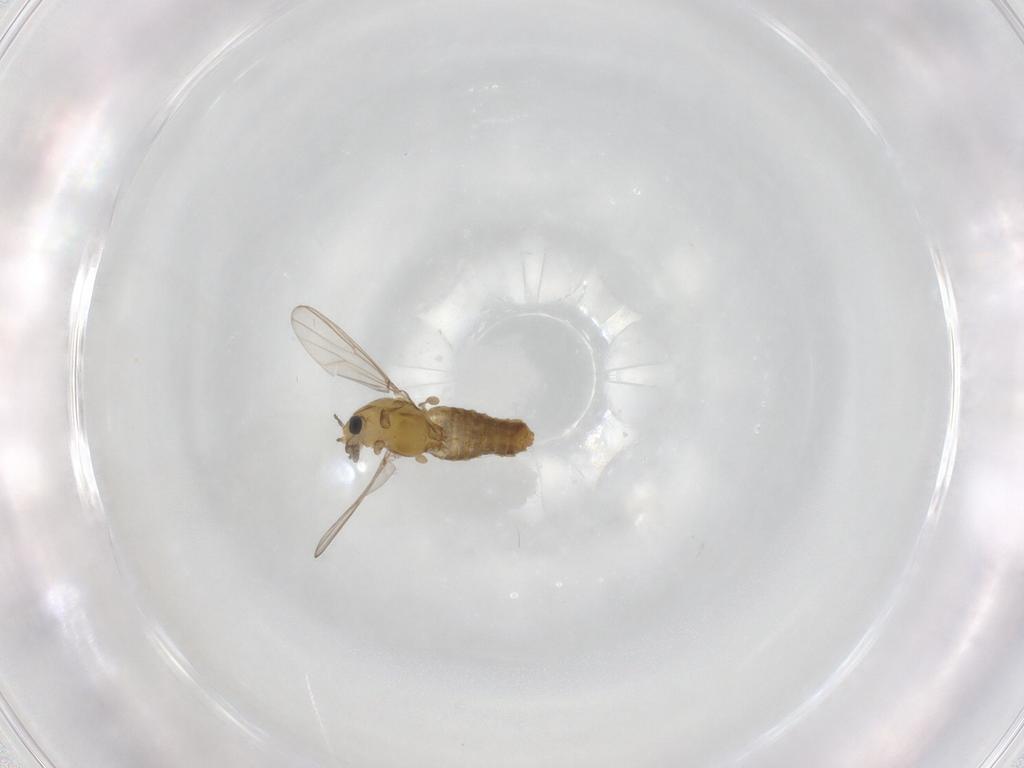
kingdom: Animalia
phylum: Arthropoda
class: Insecta
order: Diptera
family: Chironomidae
